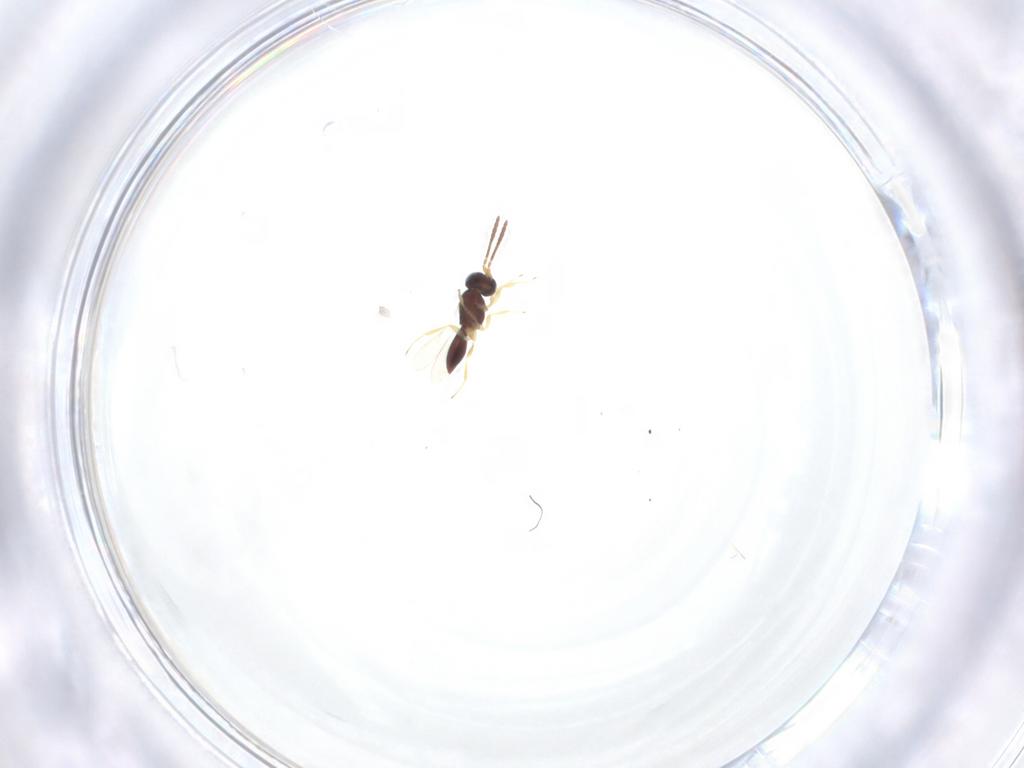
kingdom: Animalia
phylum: Arthropoda
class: Insecta
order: Hymenoptera
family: Scelionidae
